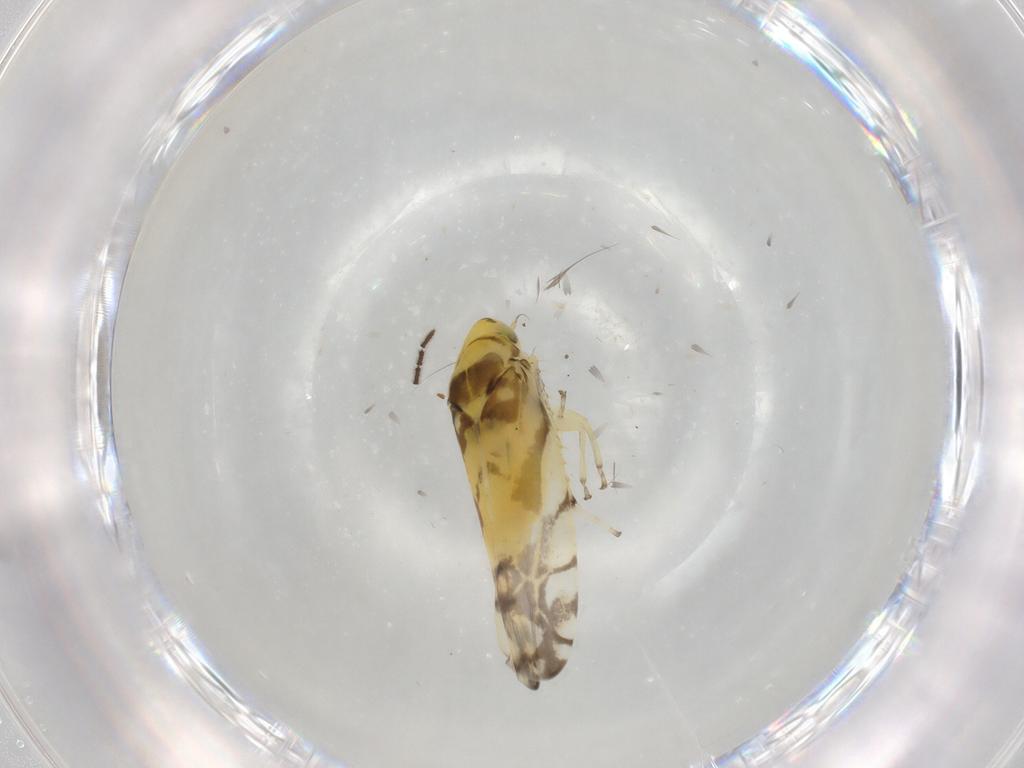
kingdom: Animalia
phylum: Arthropoda
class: Insecta
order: Hemiptera
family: Cicadellidae
